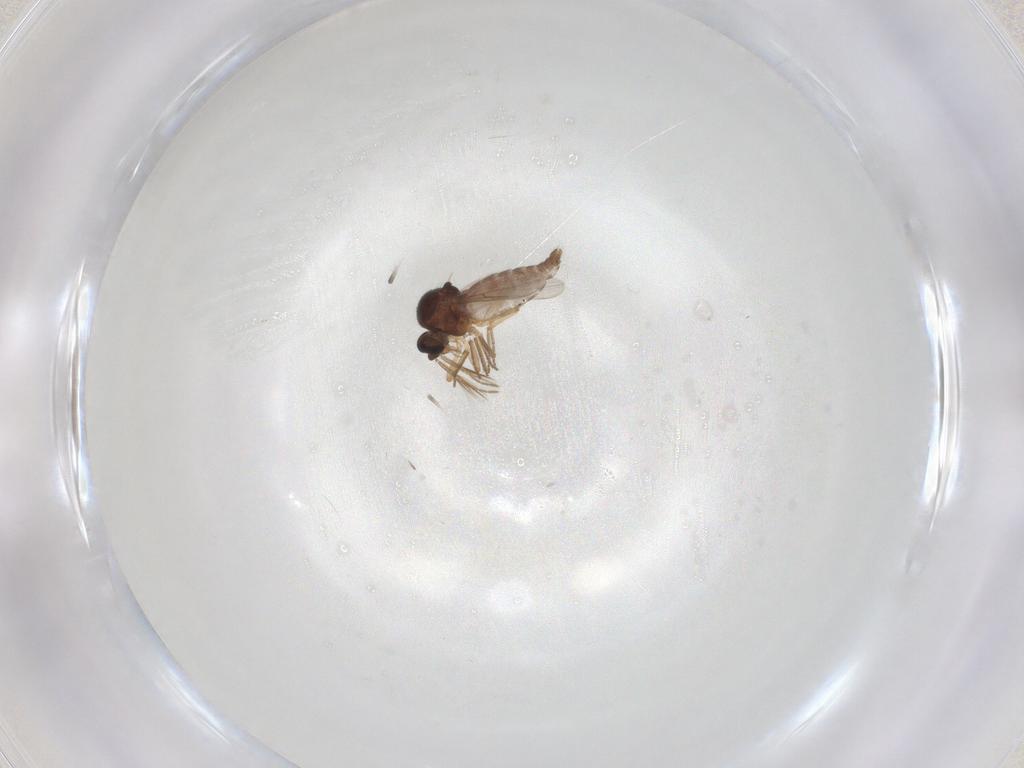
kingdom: Animalia
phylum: Arthropoda
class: Insecta
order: Diptera
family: Ceratopogonidae
